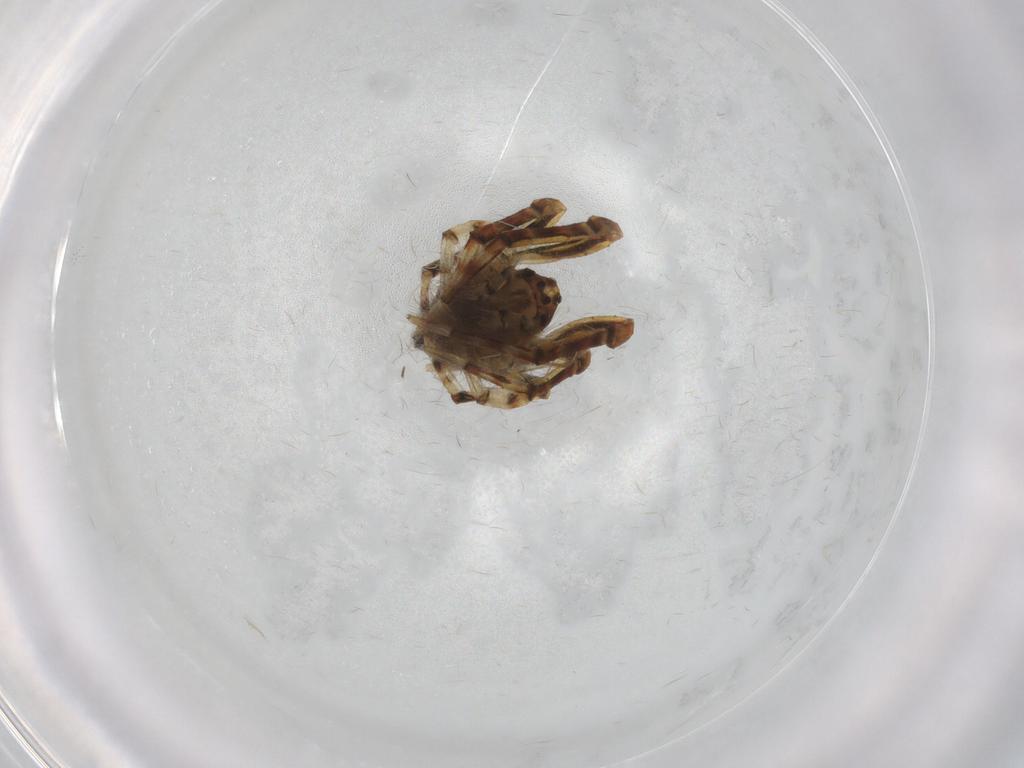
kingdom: Animalia
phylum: Arthropoda
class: Arachnida
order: Araneae
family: Araneidae
